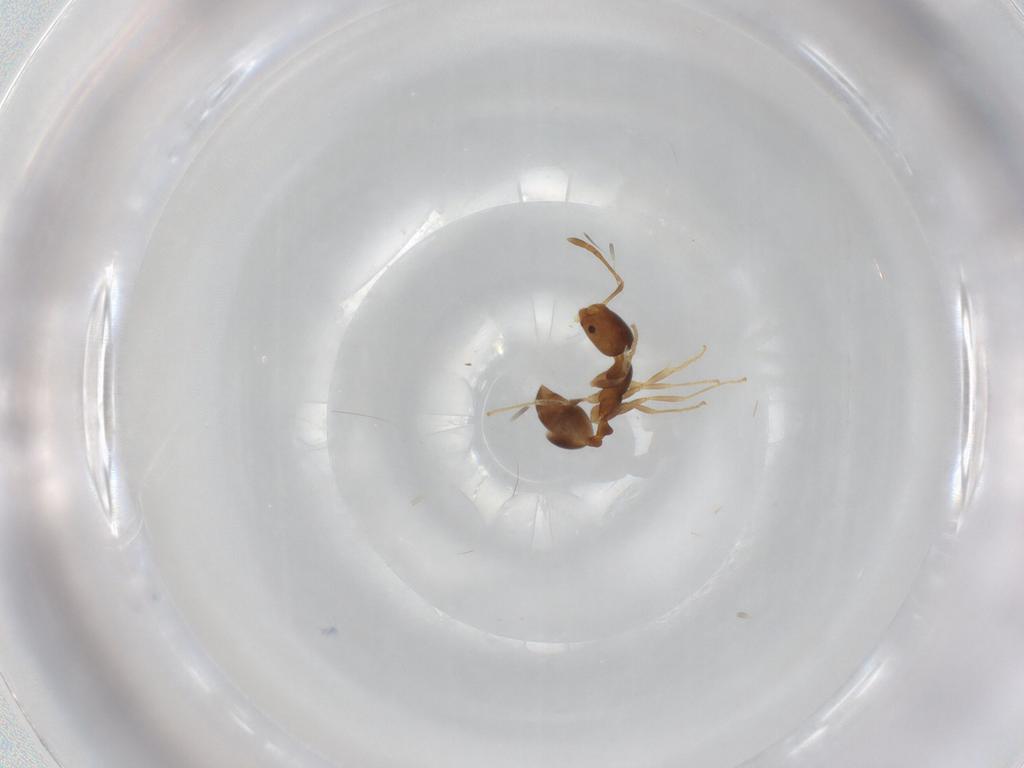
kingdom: Animalia
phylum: Arthropoda
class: Insecta
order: Hymenoptera
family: Formicidae
